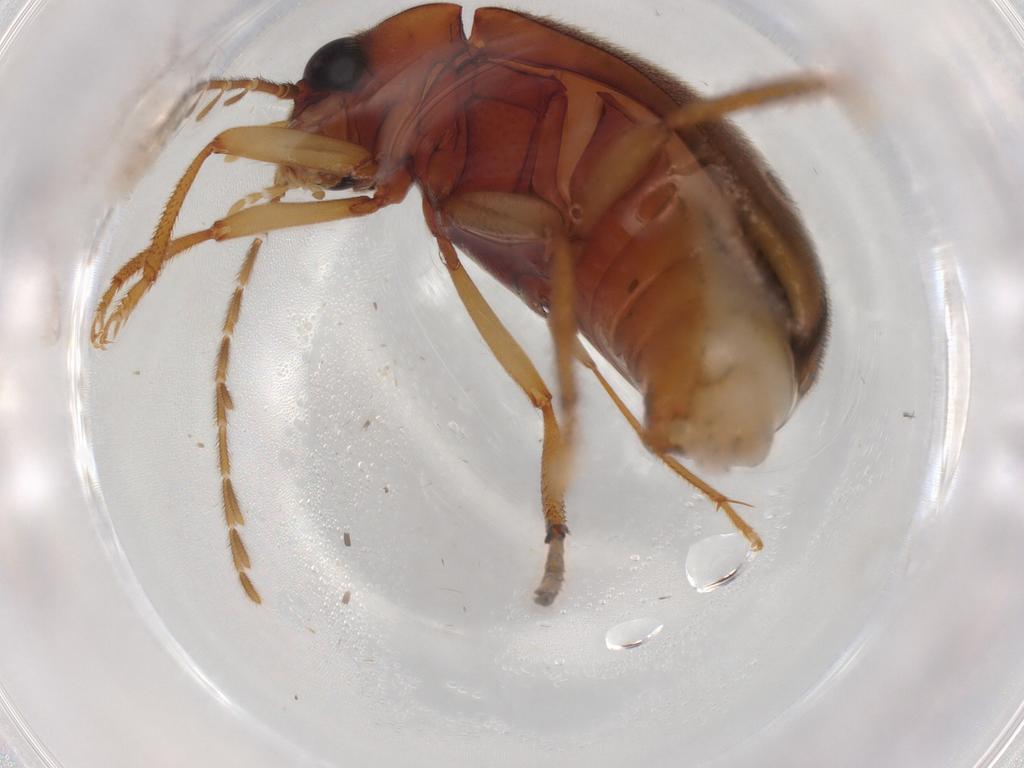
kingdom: Animalia
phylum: Arthropoda
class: Insecta
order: Coleoptera
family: Ptilodactylidae
